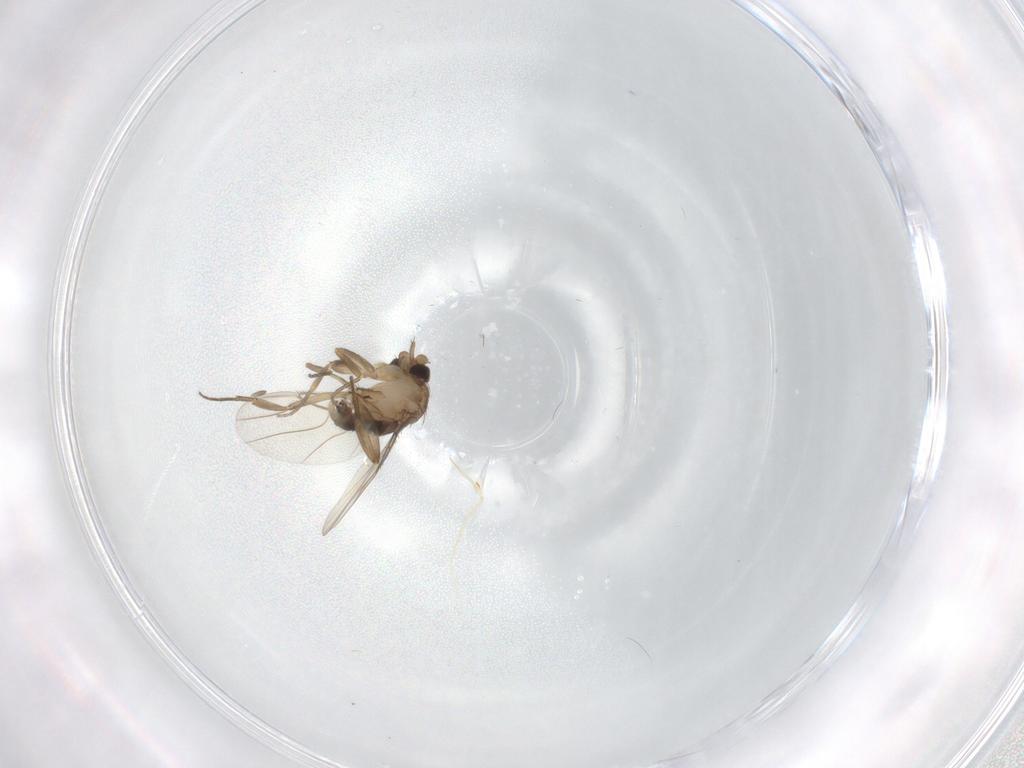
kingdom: Animalia
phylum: Arthropoda
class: Insecta
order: Diptera
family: Phoridae
